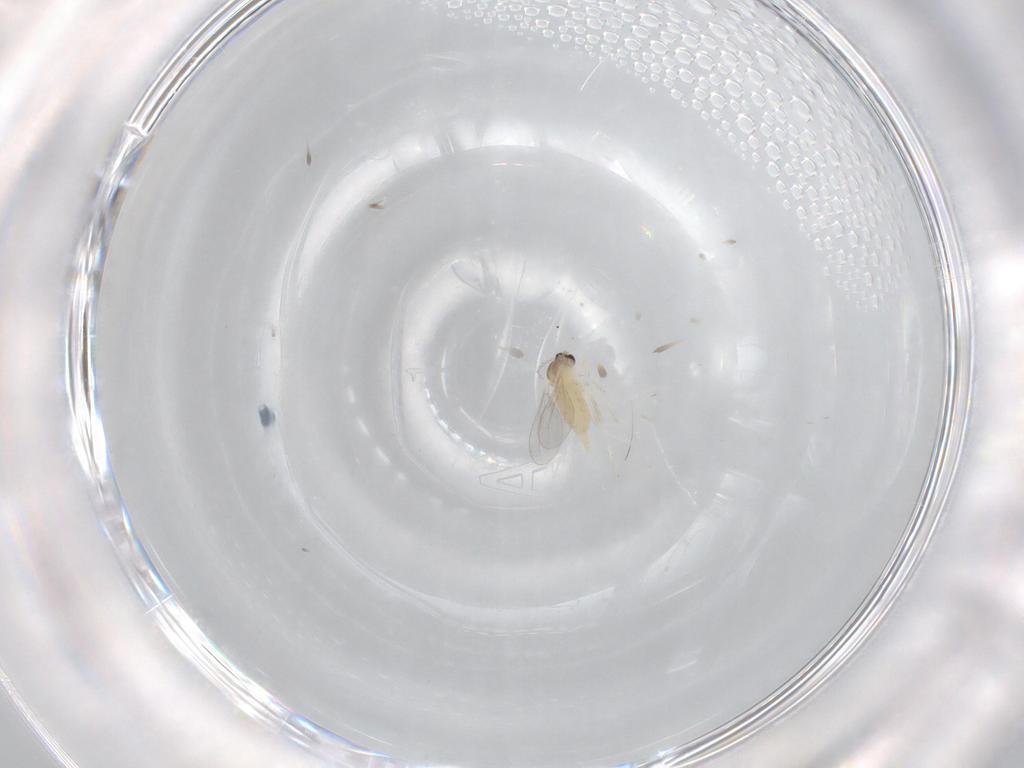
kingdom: Animalia
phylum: Arthropoda
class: Insecta
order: Diptera
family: Cecidomyiidae
